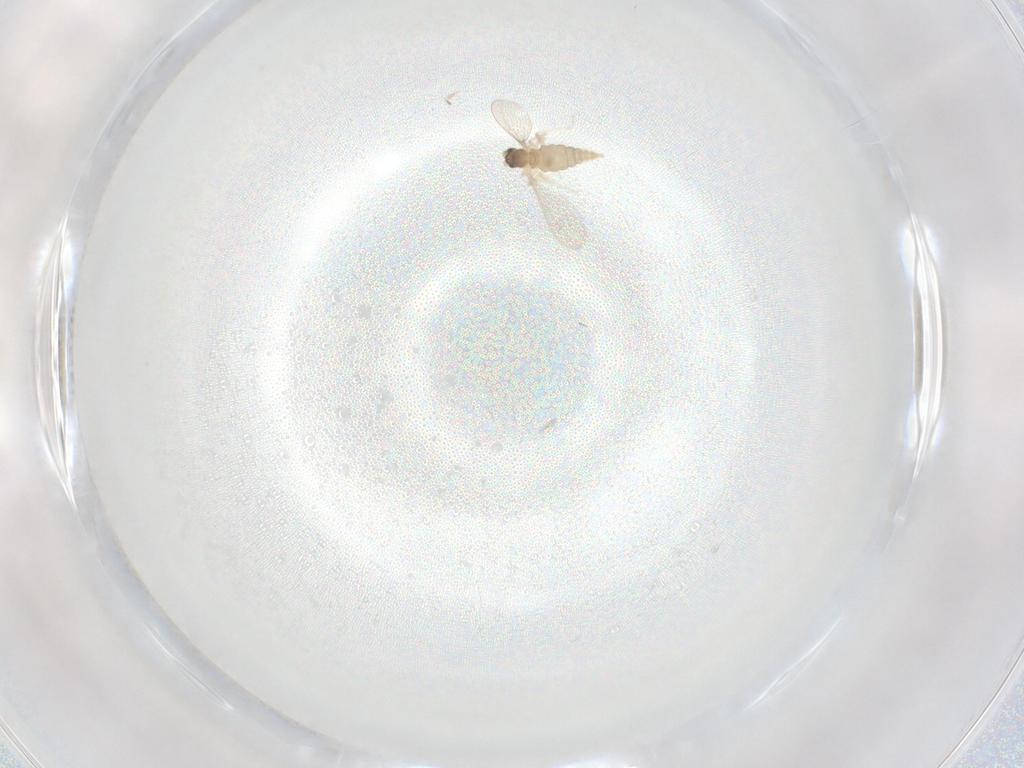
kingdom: Animalia
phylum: Arthropoda
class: Insecta
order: Diptera
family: Cecidomyiidae
